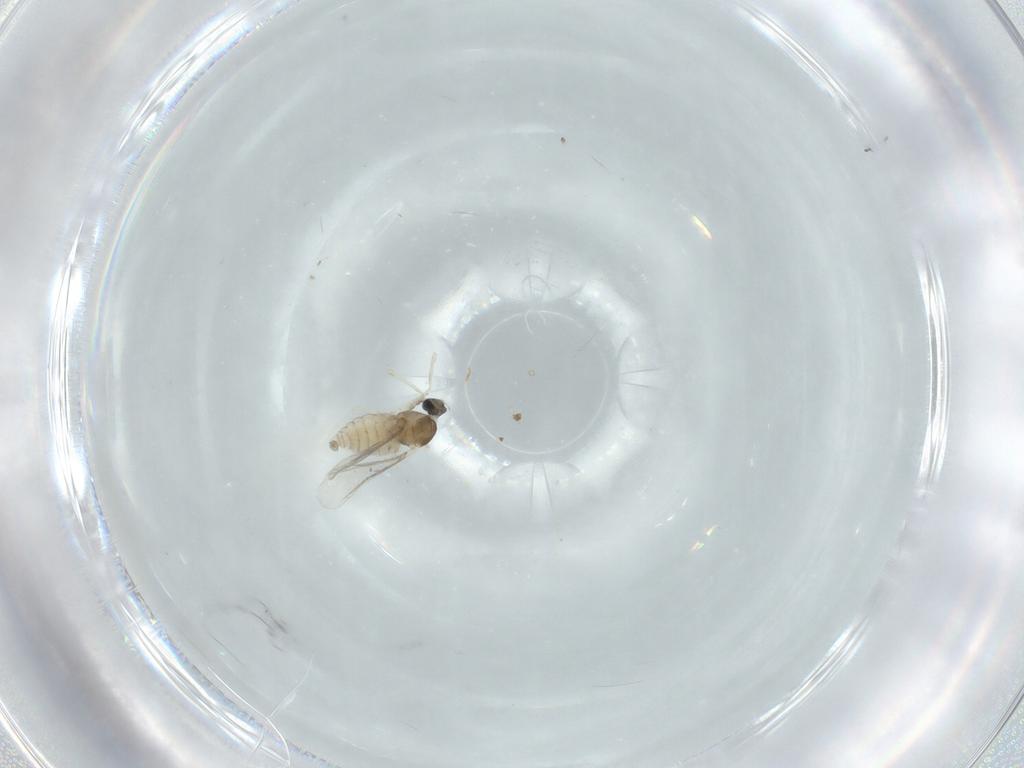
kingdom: Animalia
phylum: Arthropoda
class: Insecta
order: Diptera
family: Cecidomyiidae
